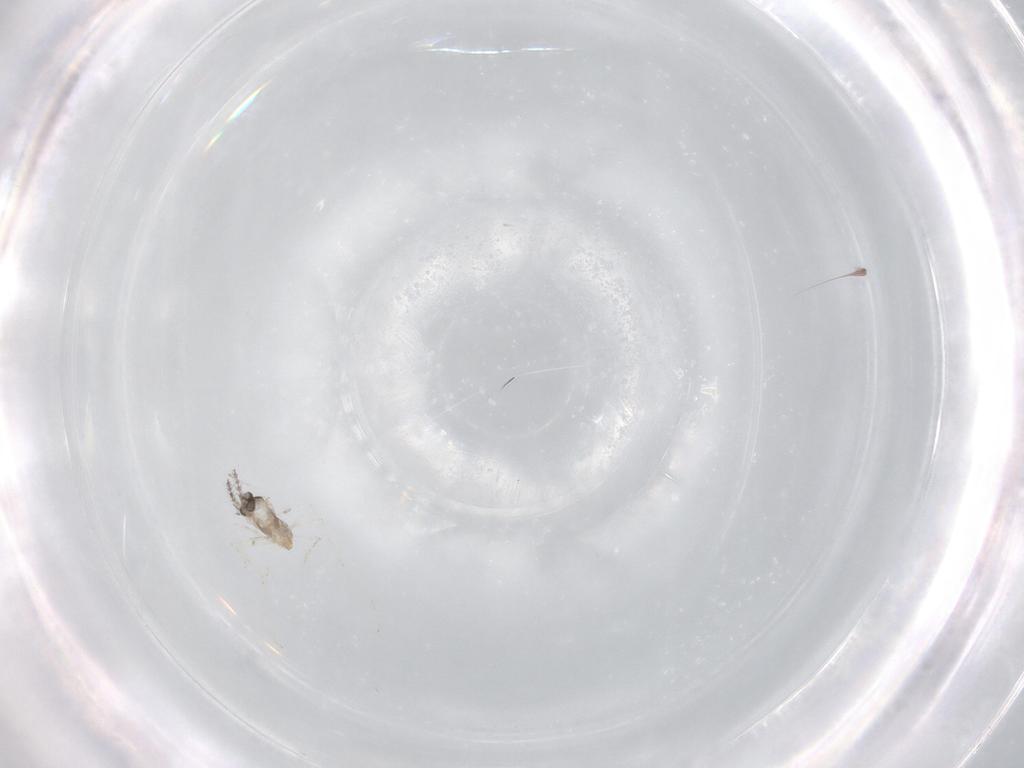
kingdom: Animalia
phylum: Arthropoda
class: Insecta
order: Diptera
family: Cecidomyiidae
